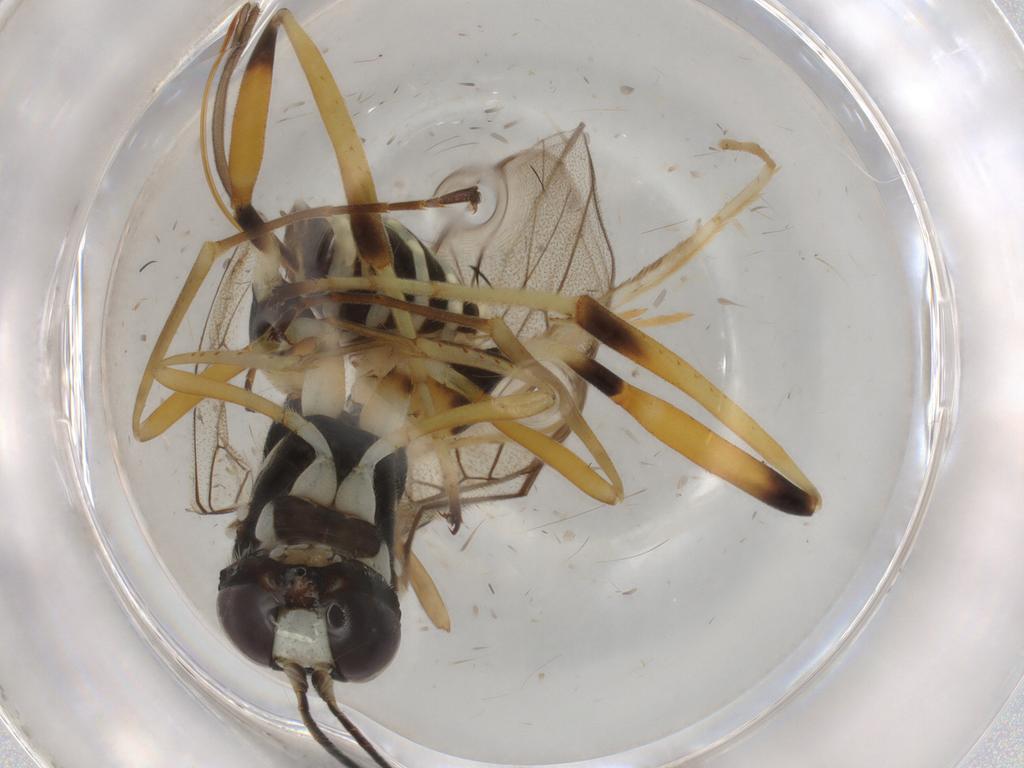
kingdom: Animalia
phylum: Arthropoda
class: Insecta
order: Hymenoptera
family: Ichneumonidae
